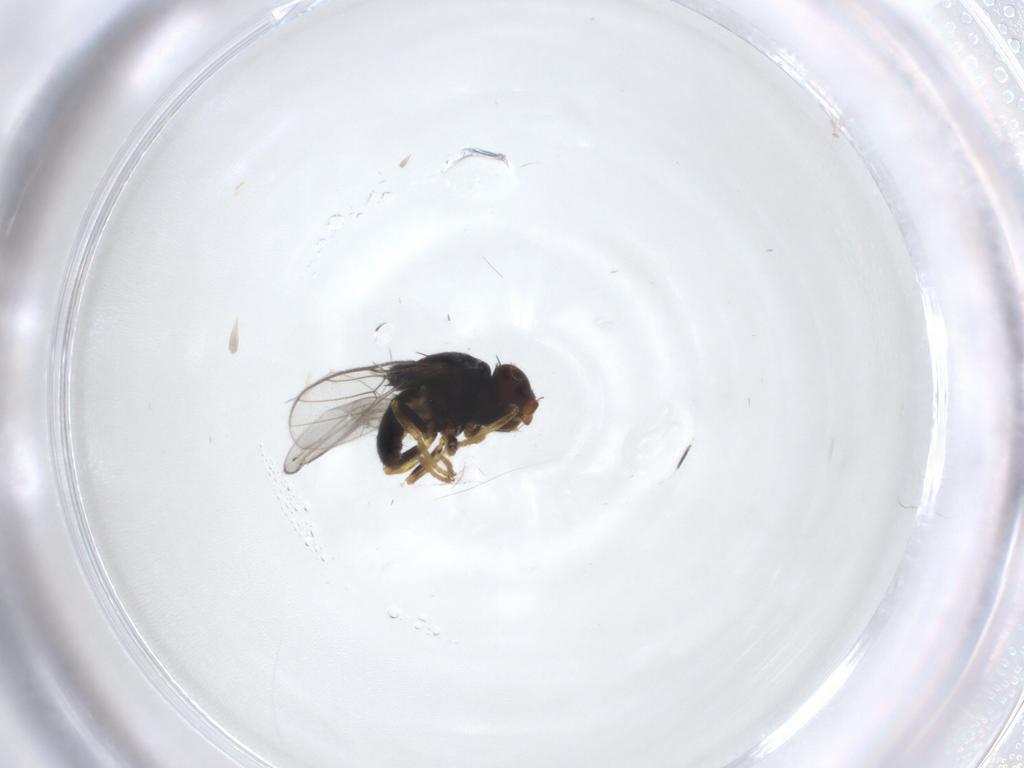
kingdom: Animalia
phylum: Arthropoda
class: Insecta
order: Diptera
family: Chloropidae
